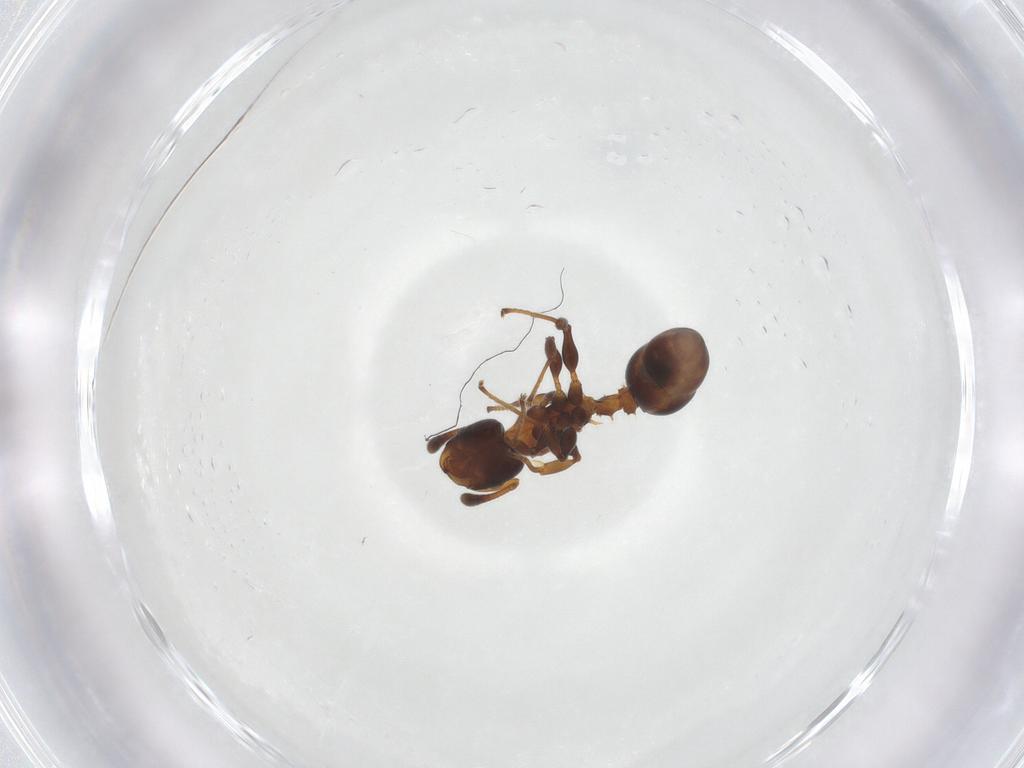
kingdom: Animalia
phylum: Arthropoda
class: Insecta
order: Hymenoptera
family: Formicidae
